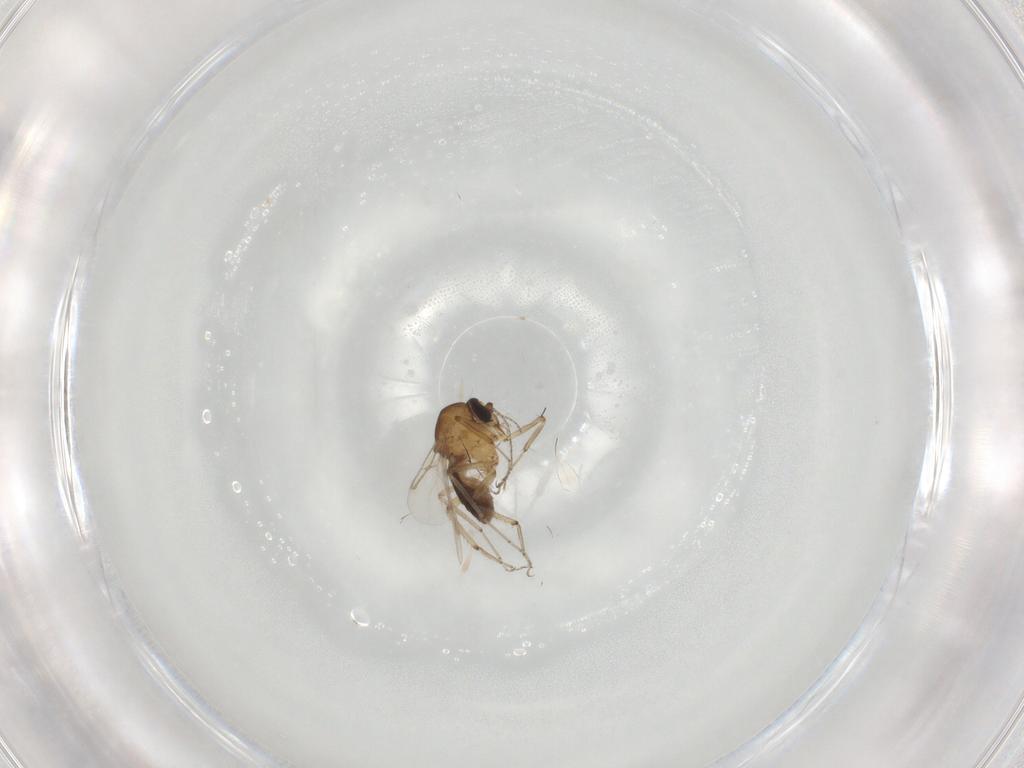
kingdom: Animalia
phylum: Arthropoda
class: Insecta
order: Diptera
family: Ceratopogonidae
